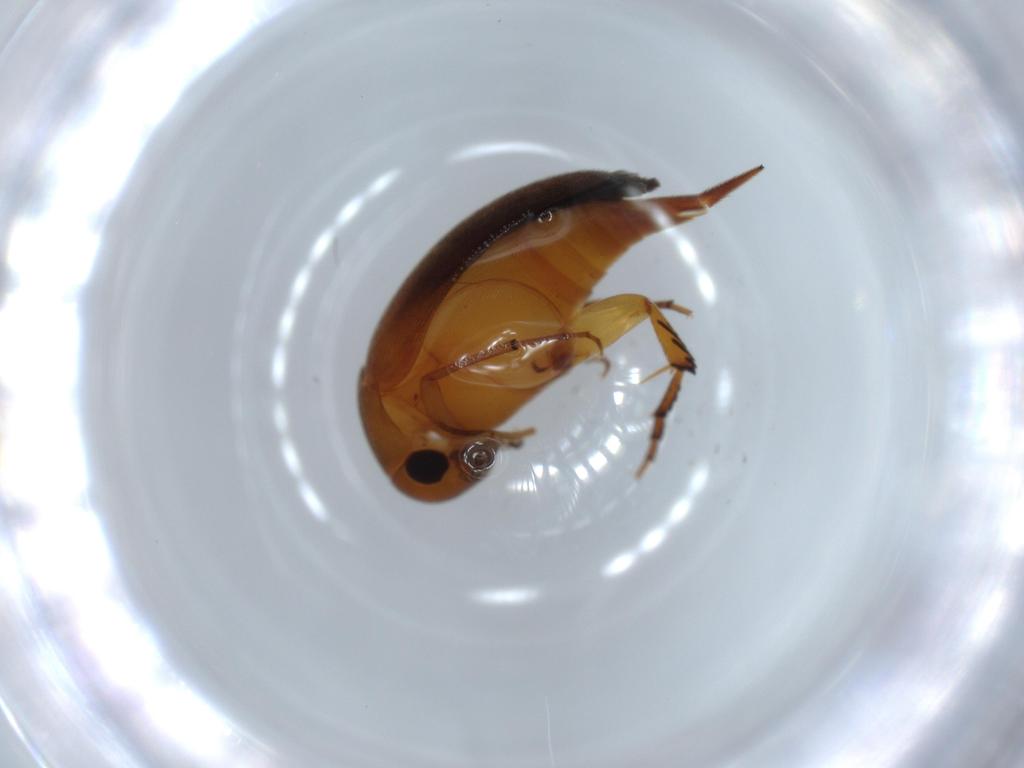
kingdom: Animalia
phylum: Arthropoda
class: Insecta
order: Coleoptera
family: Mordellidae
